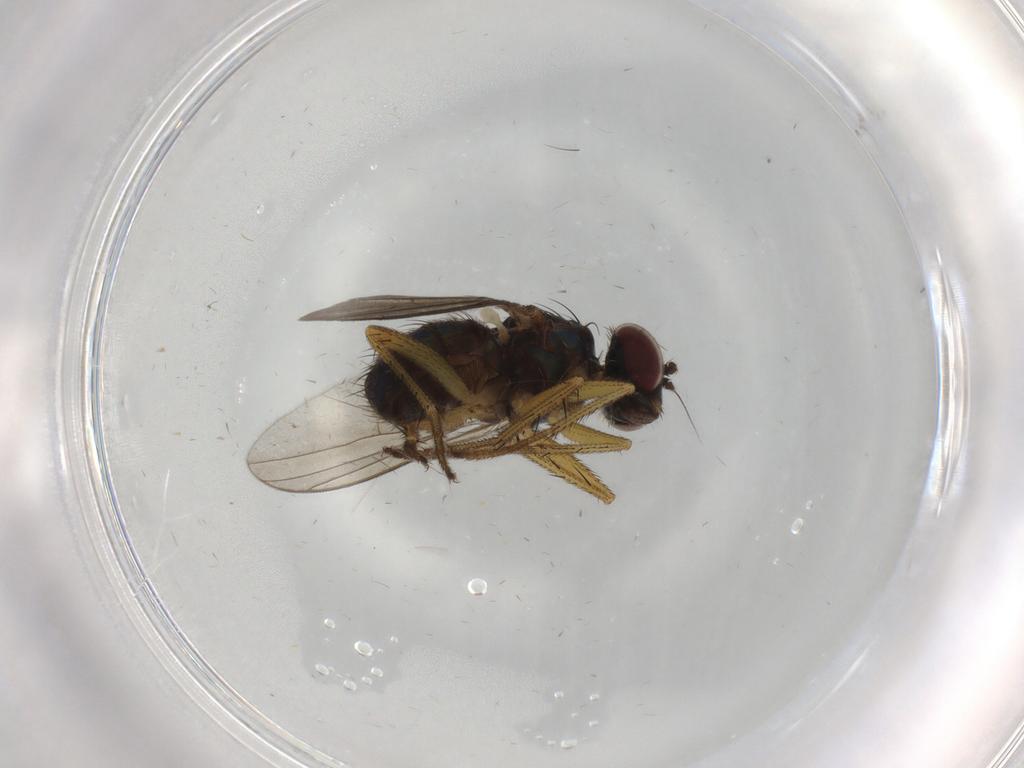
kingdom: Animalia
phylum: Arthropoda
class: Insecta
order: Diptera
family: Dolichopodidae
